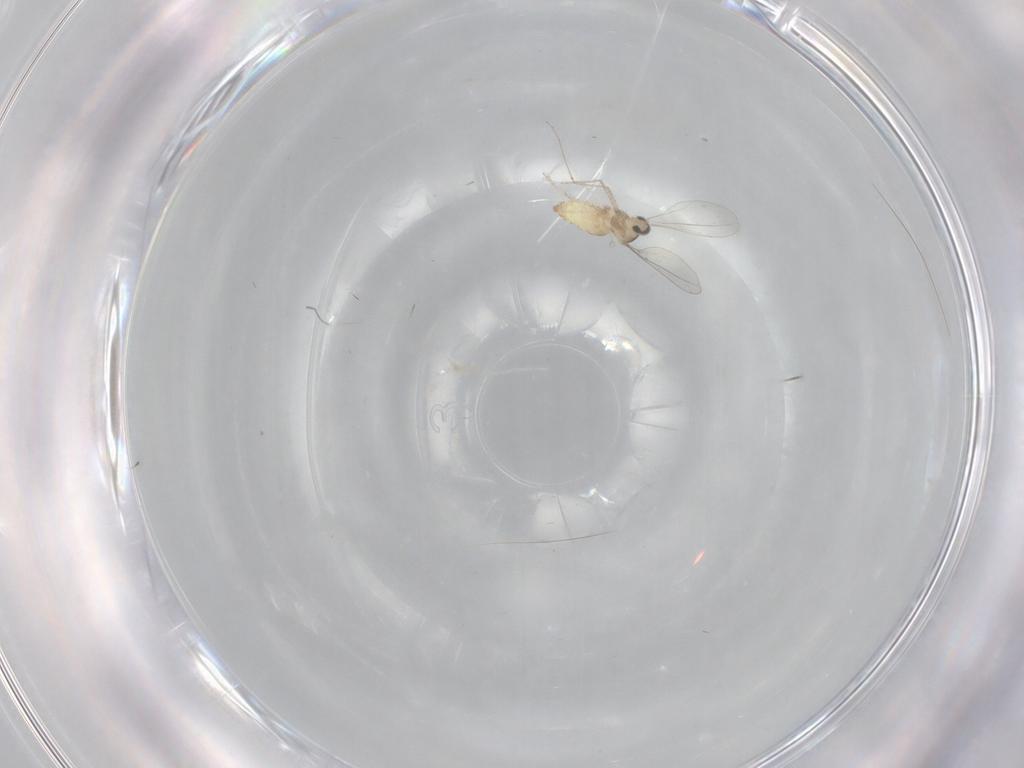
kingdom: Animalia
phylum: Arthropoda
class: Insecta
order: Diptera
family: Cecidomyiidae
